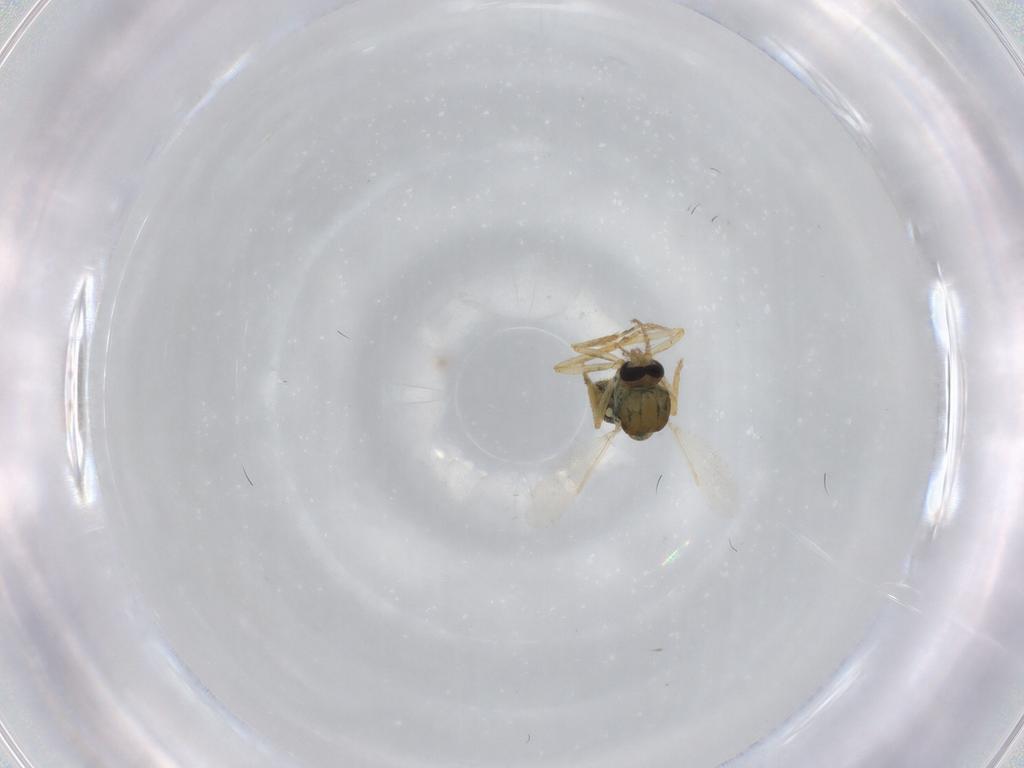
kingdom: Animalia
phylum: Arthropoda
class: Insecta
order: Diptera
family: Ceratopogonidae
